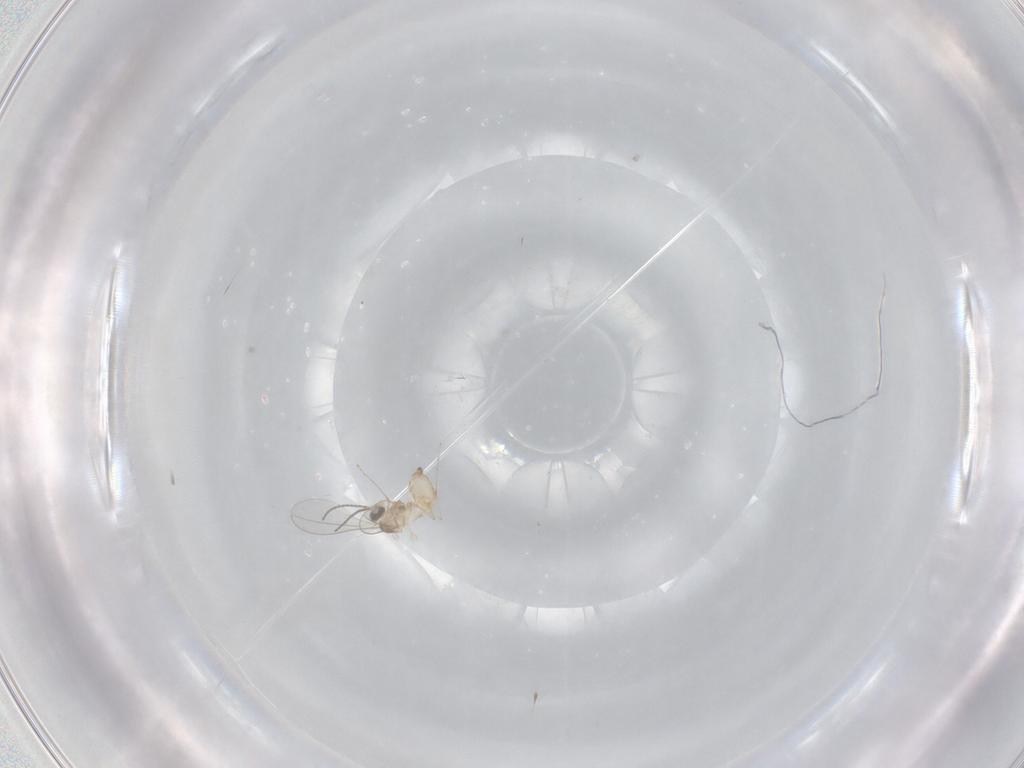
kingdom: Animalia
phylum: Arthropoda
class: Insecta
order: Diptera
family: Cecidomyiidae
